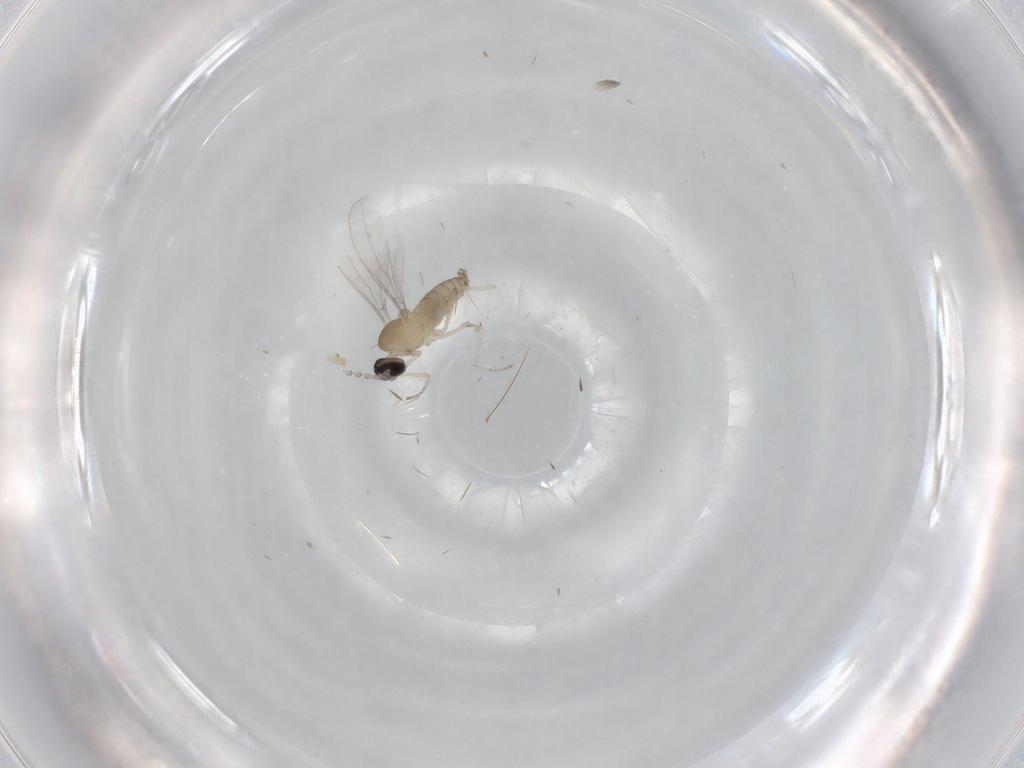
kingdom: Animalia
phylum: Arthropoda
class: Insecta
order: Diptera
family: Cecidomyiidae
